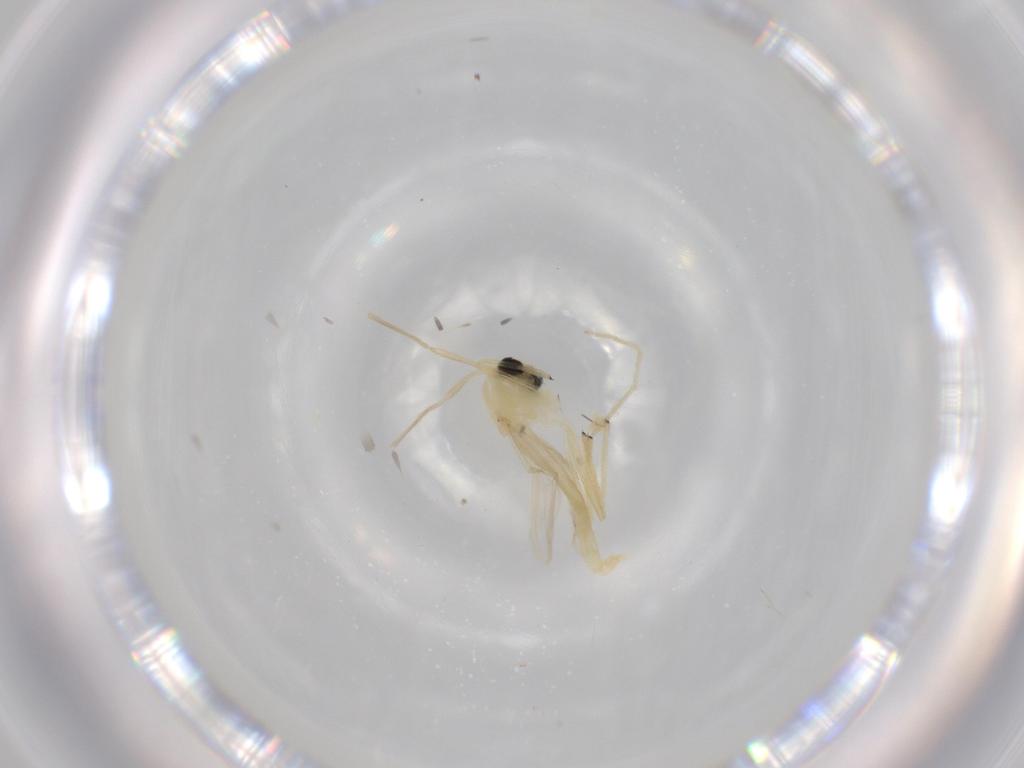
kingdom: Animalia
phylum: Arthropoda
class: Insecta
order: Diptera
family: Chironomidae
